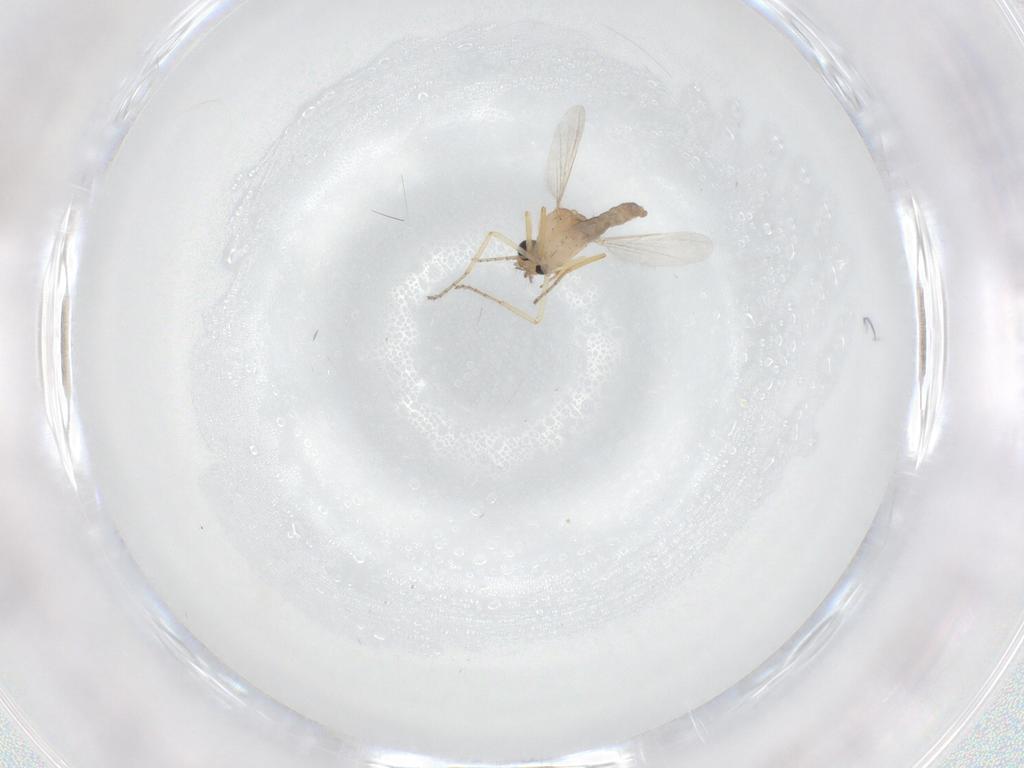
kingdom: Animalia
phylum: Arthropoda
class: Insecta
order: Diptera
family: Ceratopogonidae
